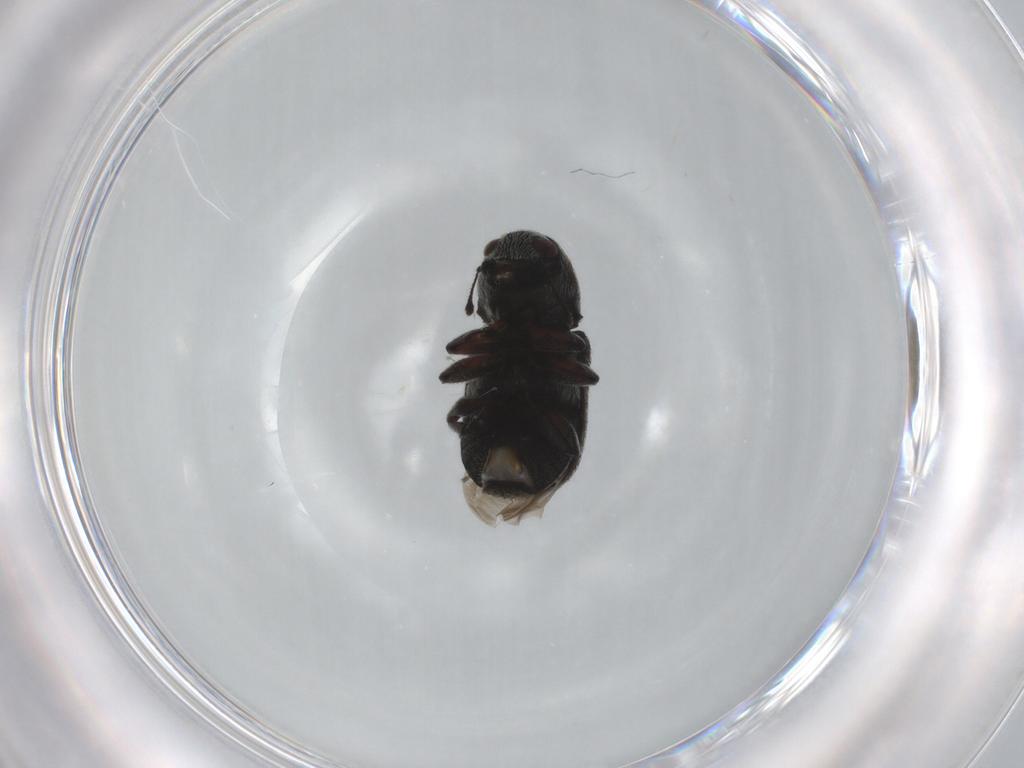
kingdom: Animalia
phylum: Arthropoda
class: Insecta
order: Coleoptera
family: Anthribidae
